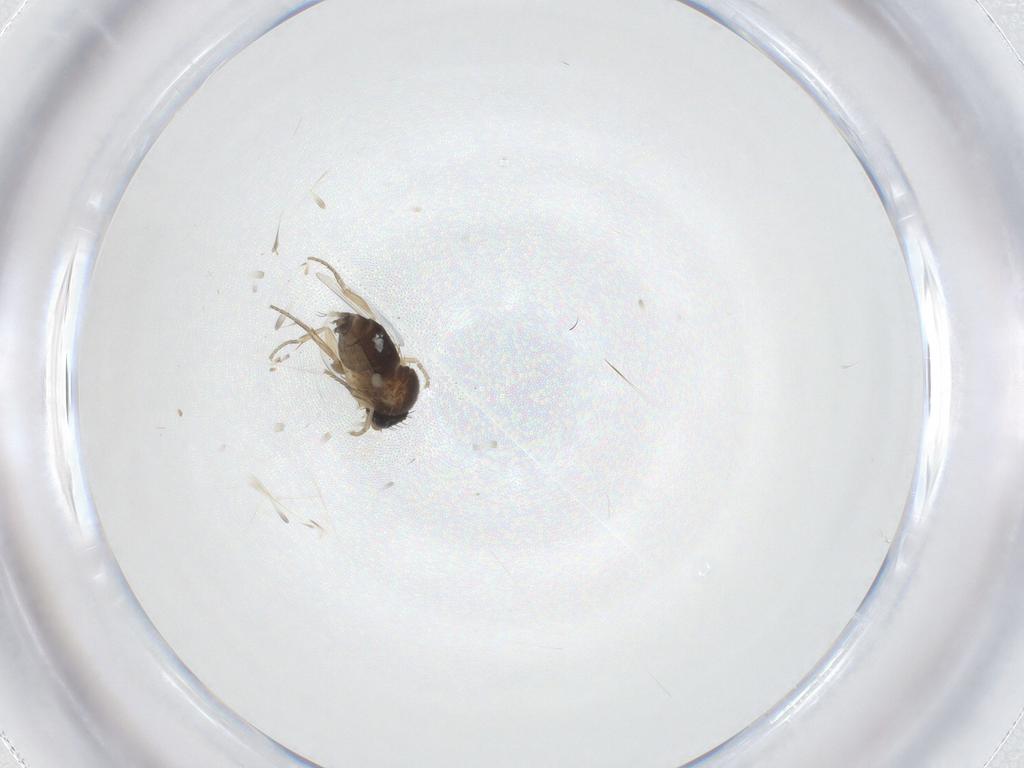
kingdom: Animalia
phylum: Arthropoda
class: Insecta
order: Diptera
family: Phoridae
